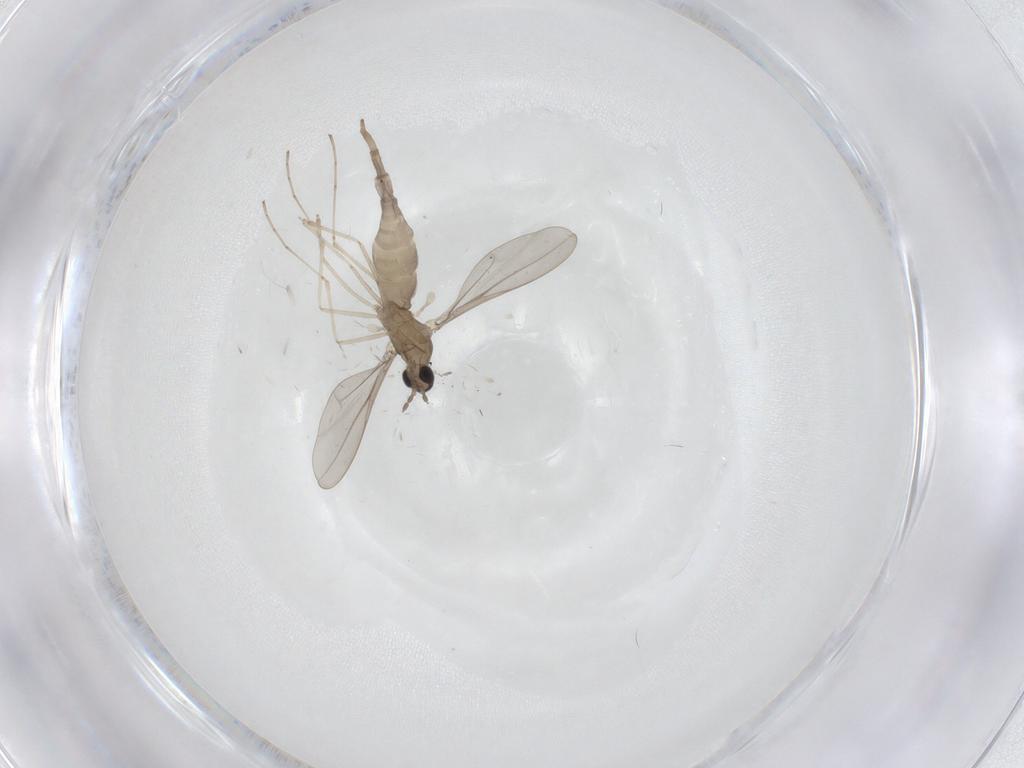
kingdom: Animalia
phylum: Arthropoda
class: Insecta
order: Diptera
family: Cecidomyiidae
